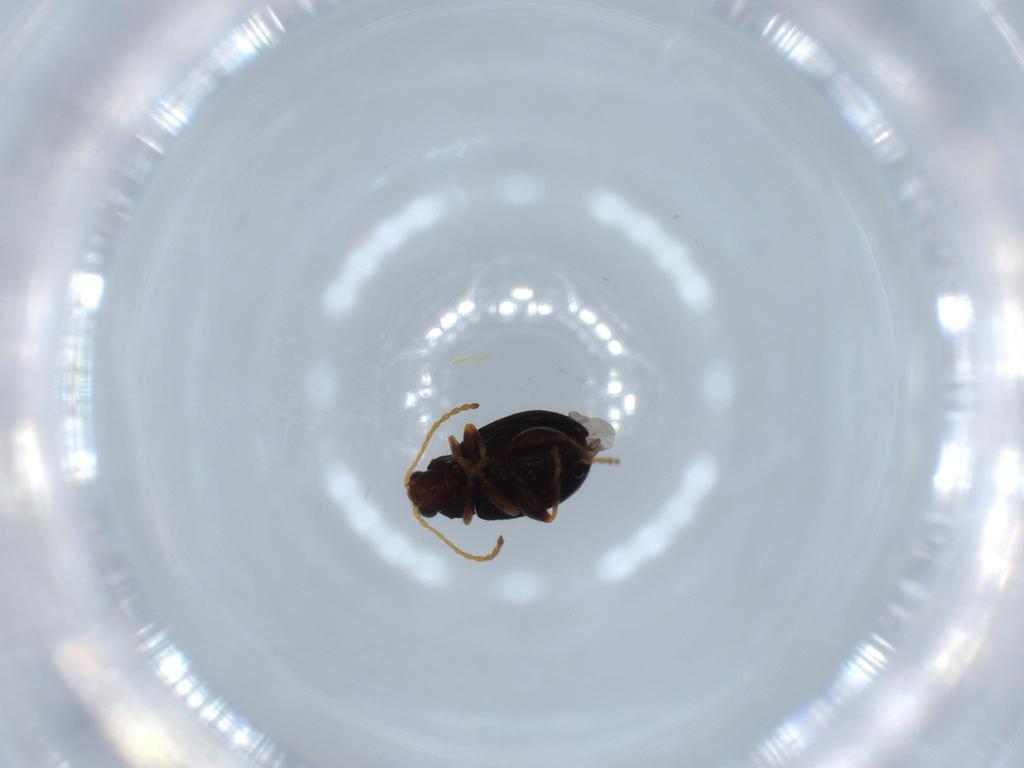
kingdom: Animalia
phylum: Arthropoda
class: Insecta
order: Coleoptera
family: Chrysomelidae
